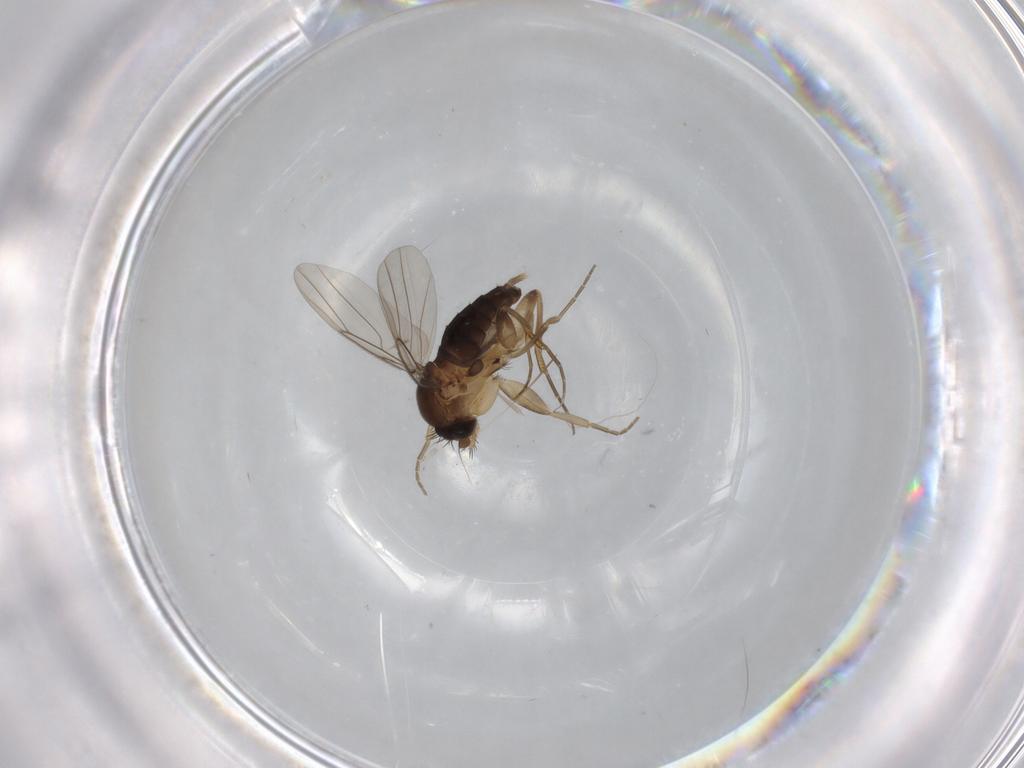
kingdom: Animalia
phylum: Arthropoda
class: Insecta
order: Diptera
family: Phoridae
